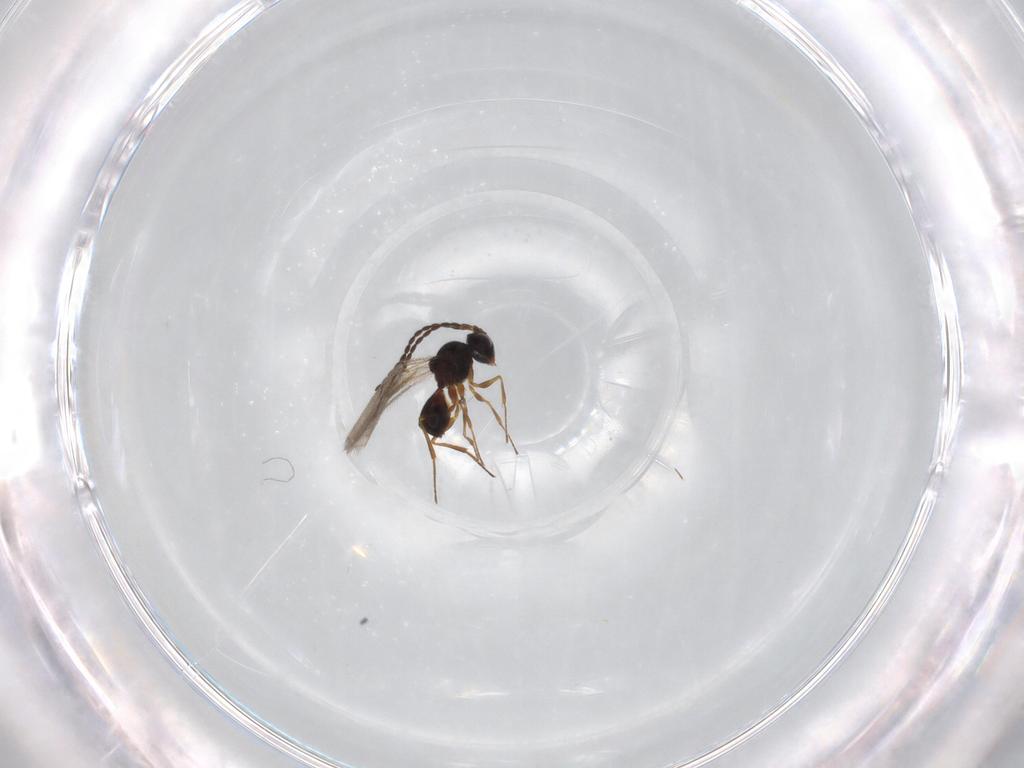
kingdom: Animalia
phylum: Arthropoda
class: Insecta
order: Hymenoptera
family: Figitidae
